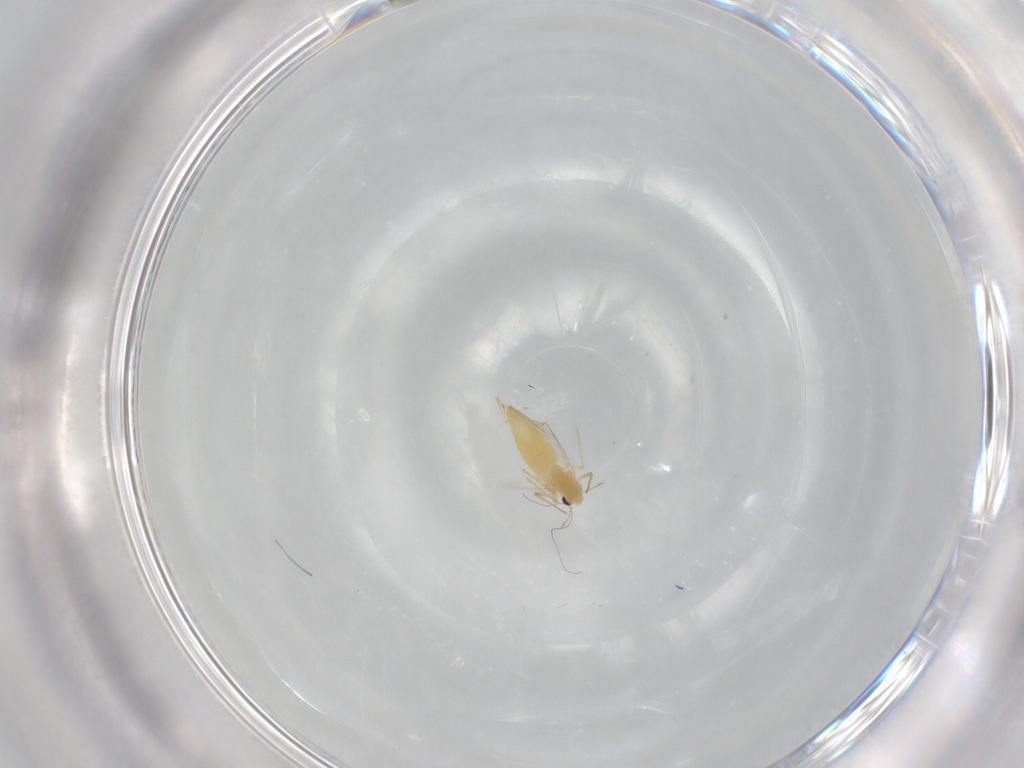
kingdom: Animalia
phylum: Arthropoda
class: Insecta
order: Diptera
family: Chironomidae
